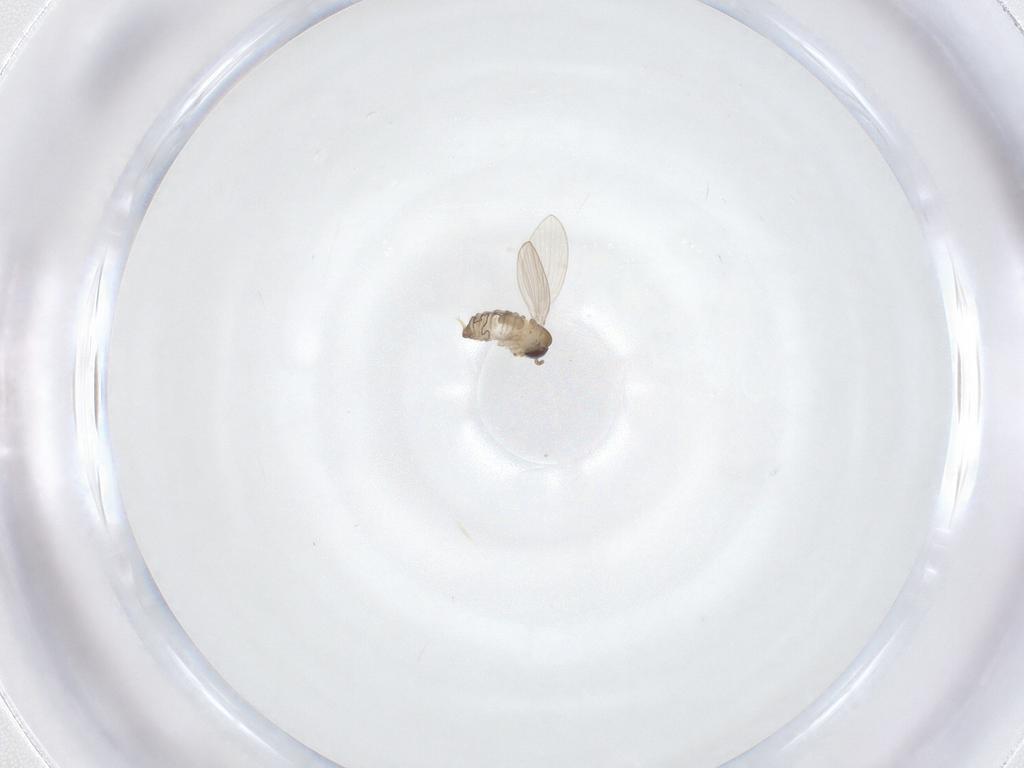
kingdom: Animalia
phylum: Arthropoda
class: Insecta
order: Diptera
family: Psychodidae
